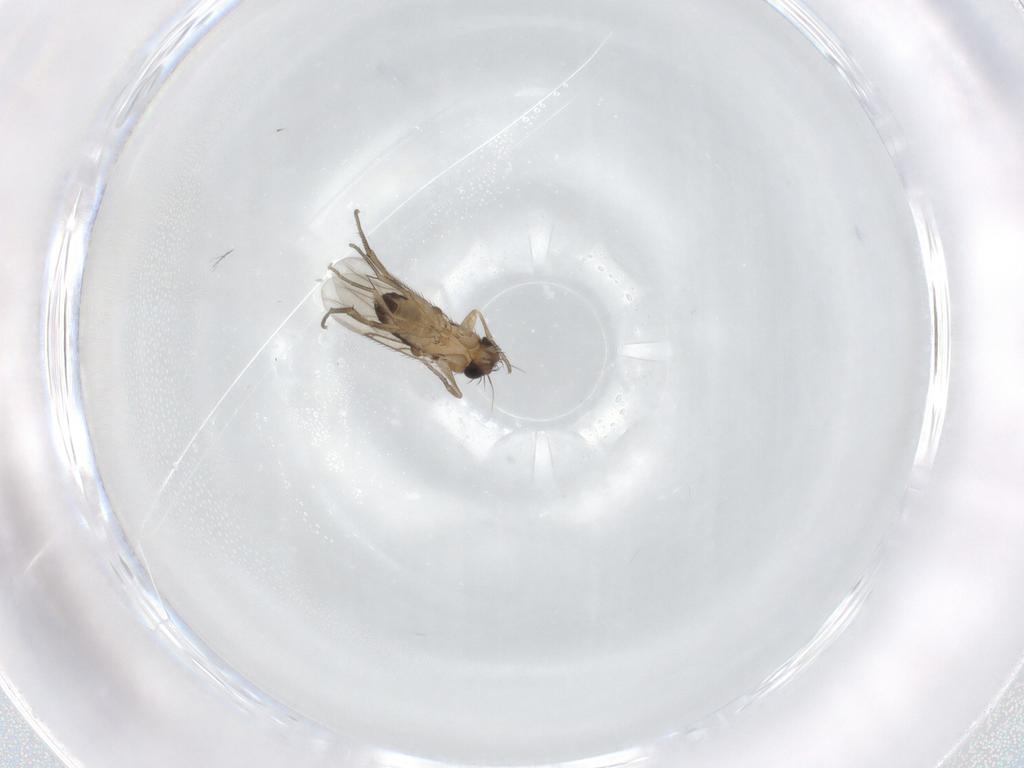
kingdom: Animalia
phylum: Arthropoda
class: Insecta
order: Diptera
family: Phoridae
